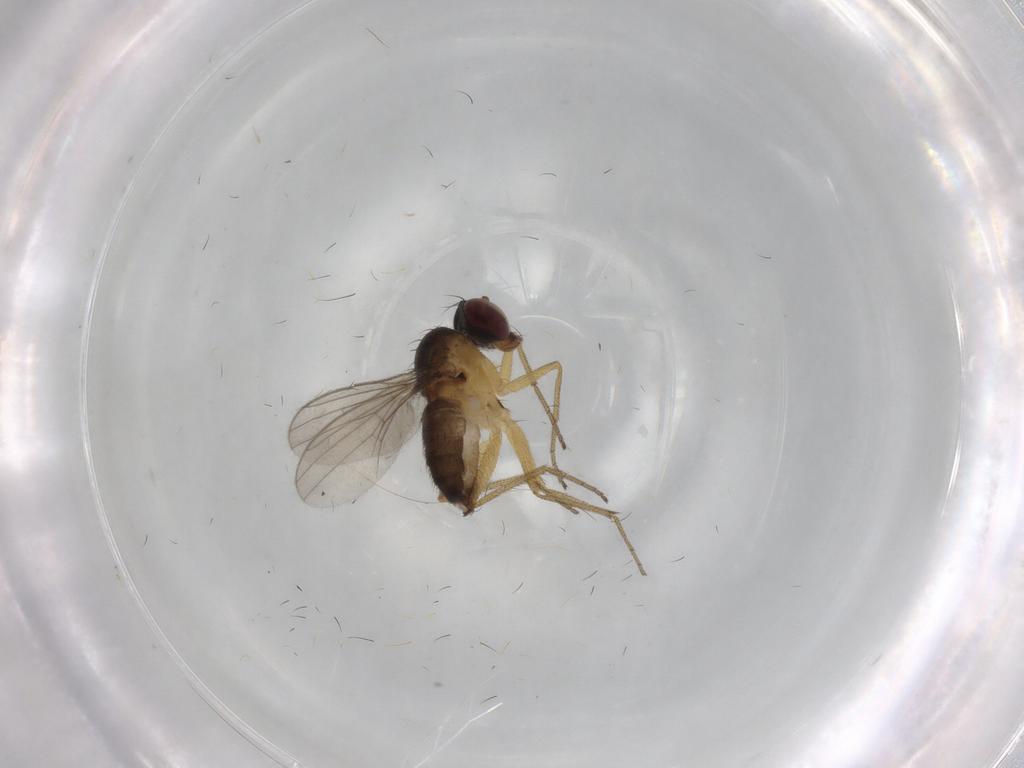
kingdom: Animalia
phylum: Arthropoda
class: Insecta
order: Diptera
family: Dolichopodidae
